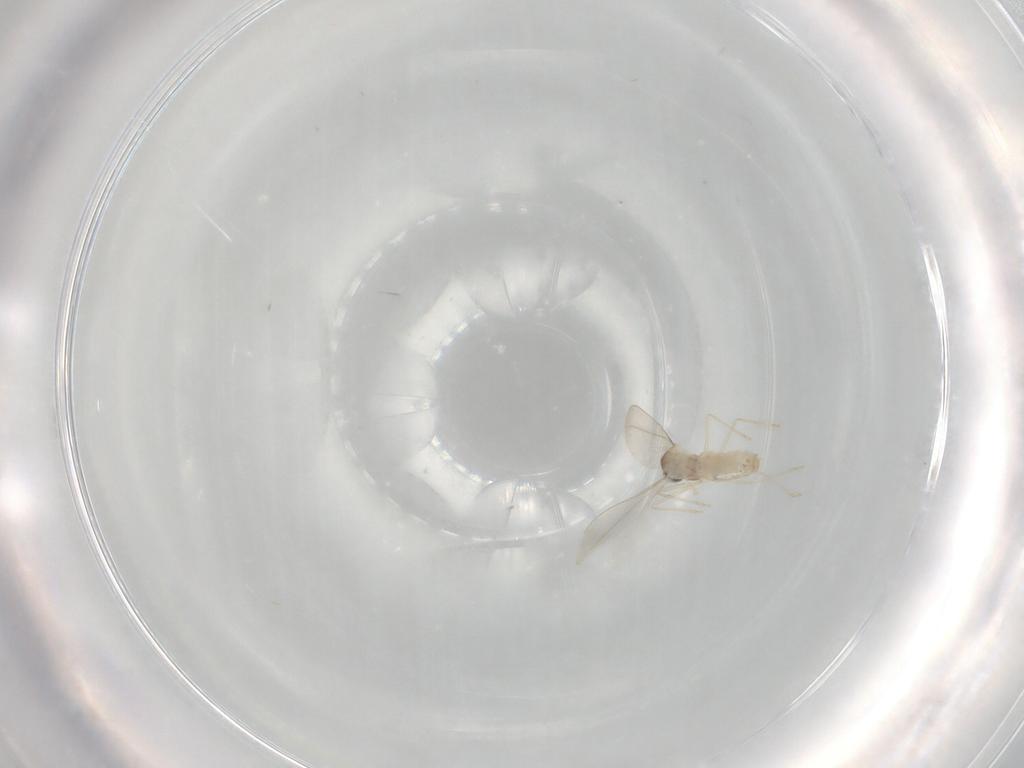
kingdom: Animalia
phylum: Arthropoda
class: Insecta
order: Diptera
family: Cecidomyiidae
